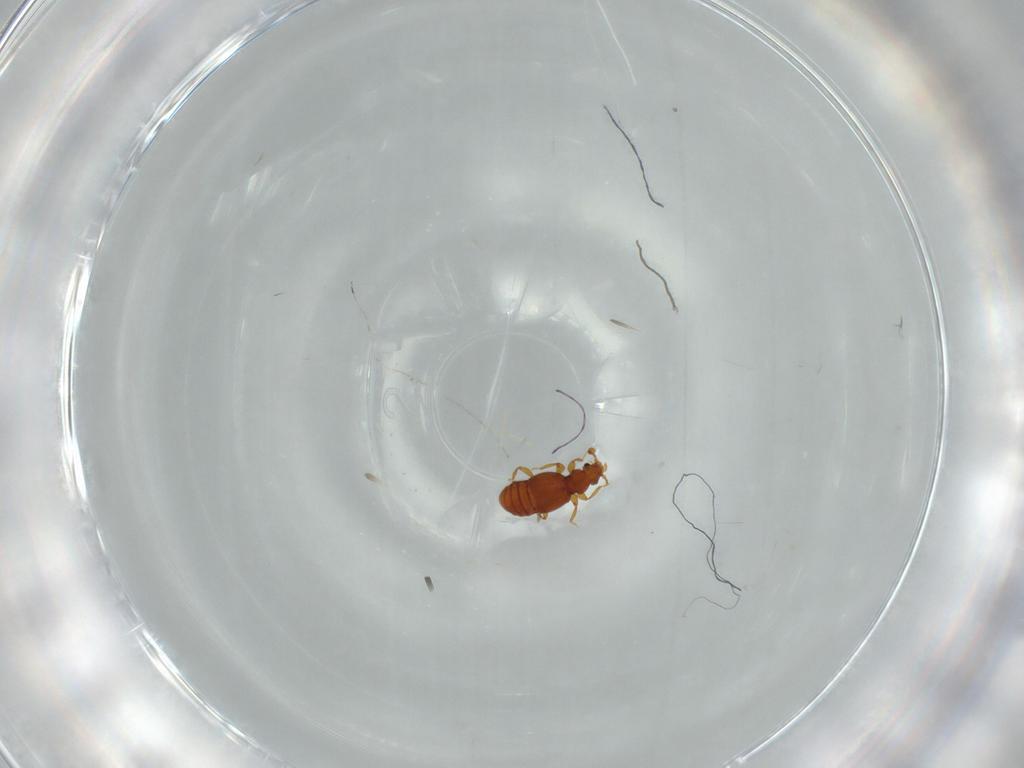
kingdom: Animalia
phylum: Arthropoda
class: Insecta
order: Coleoptera
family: Staphylinidae
